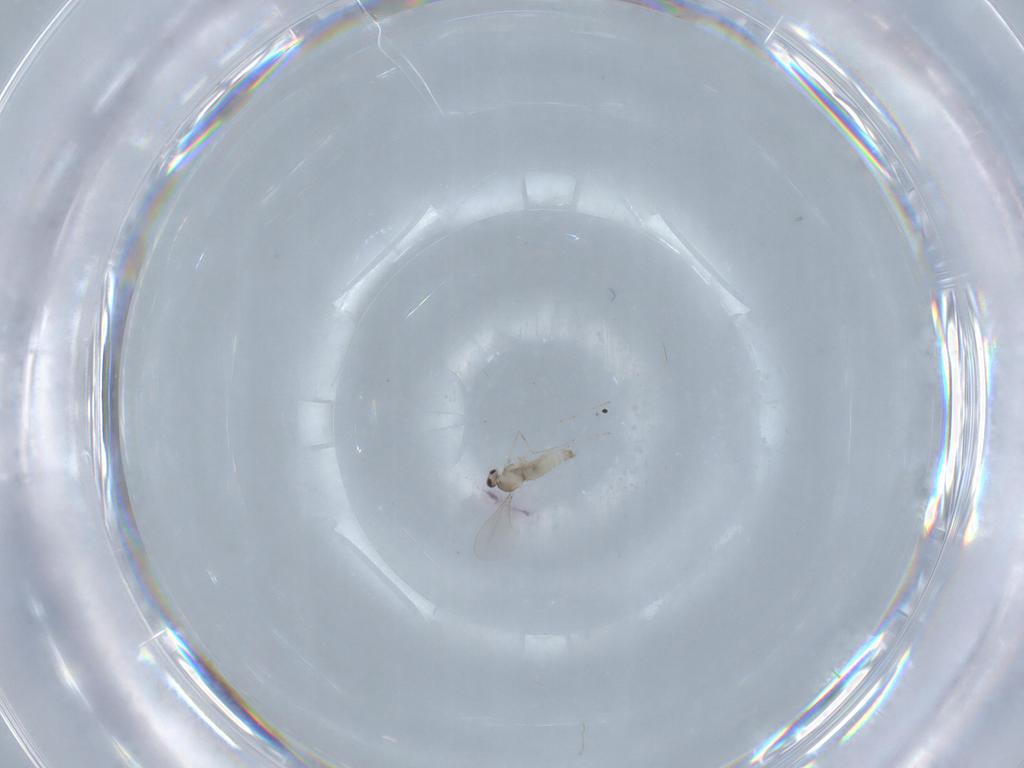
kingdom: Animalia
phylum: Arthropoda
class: Insecta
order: Diptera
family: Cecidomyiidae
